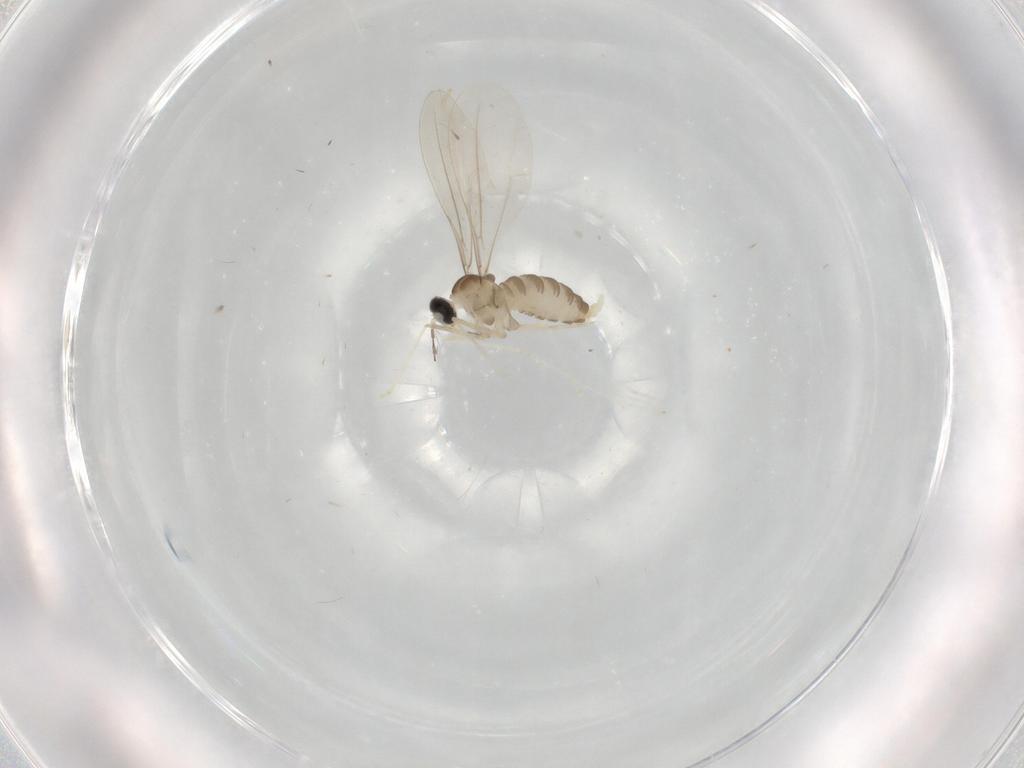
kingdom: Animalia
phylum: Arthropoda
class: Insecta
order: Diptera
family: Cecidomyiidae
